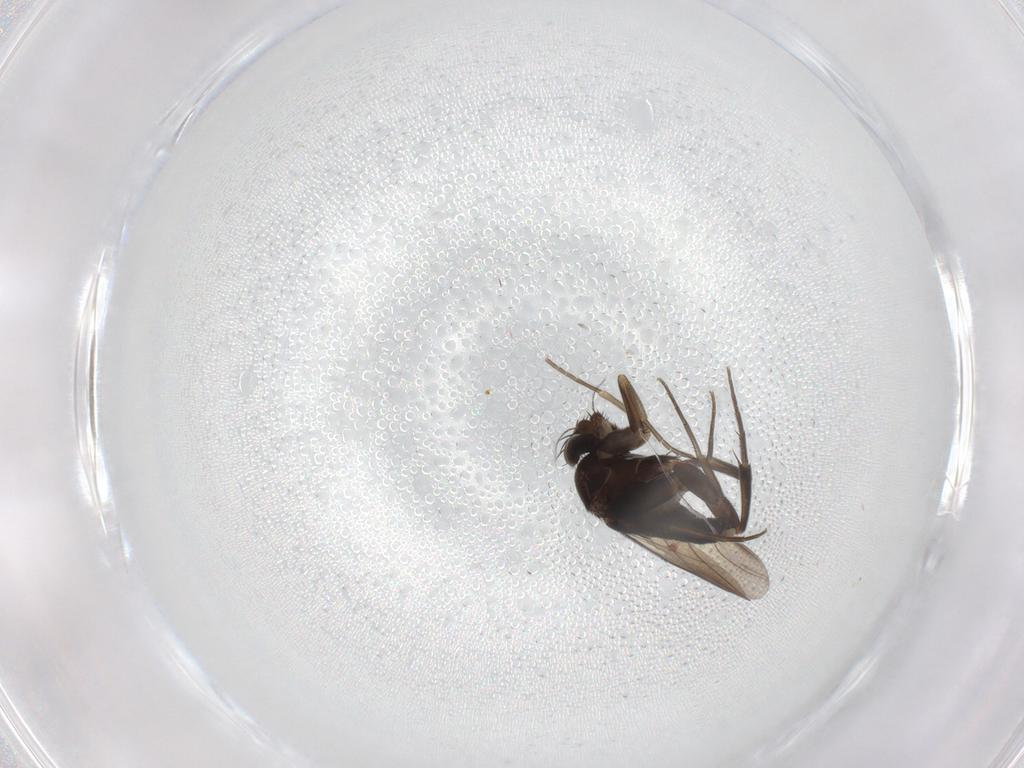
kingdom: Animalia
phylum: Arthropoda
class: Insecta
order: Diptera
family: Phoridae
